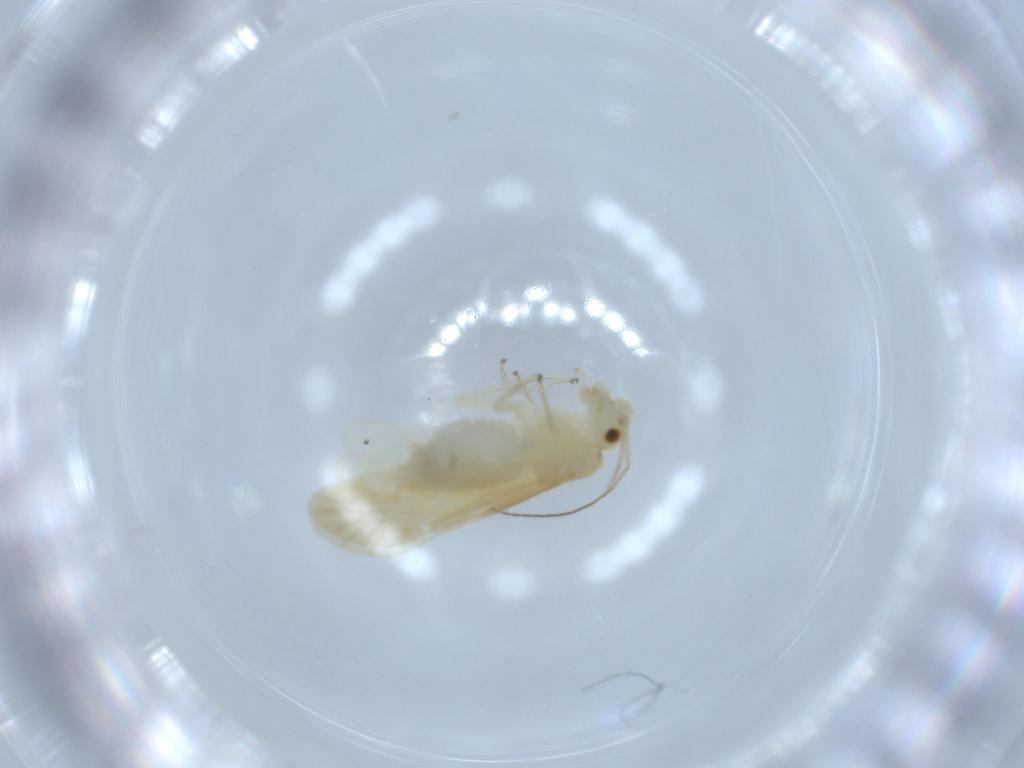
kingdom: Animalia
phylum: Arthropoda
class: Insecta
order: Psocodea
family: Caeciliusidae
